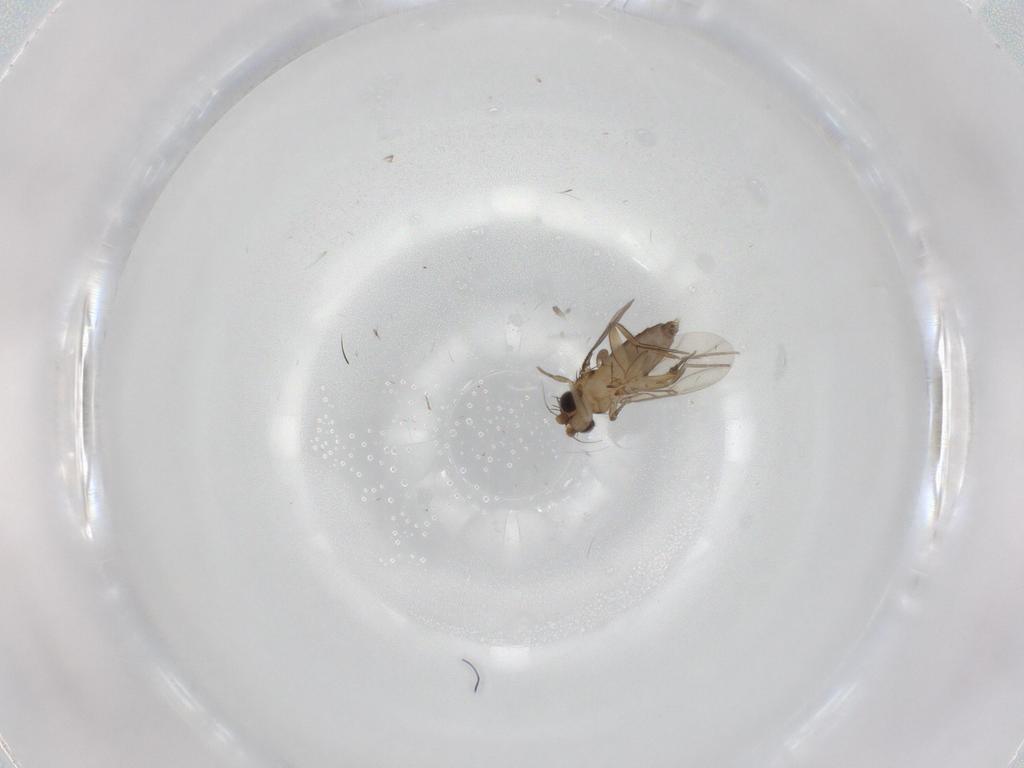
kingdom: Animalia
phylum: Arthropoda
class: Insecta
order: Diptera
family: Phoridae
